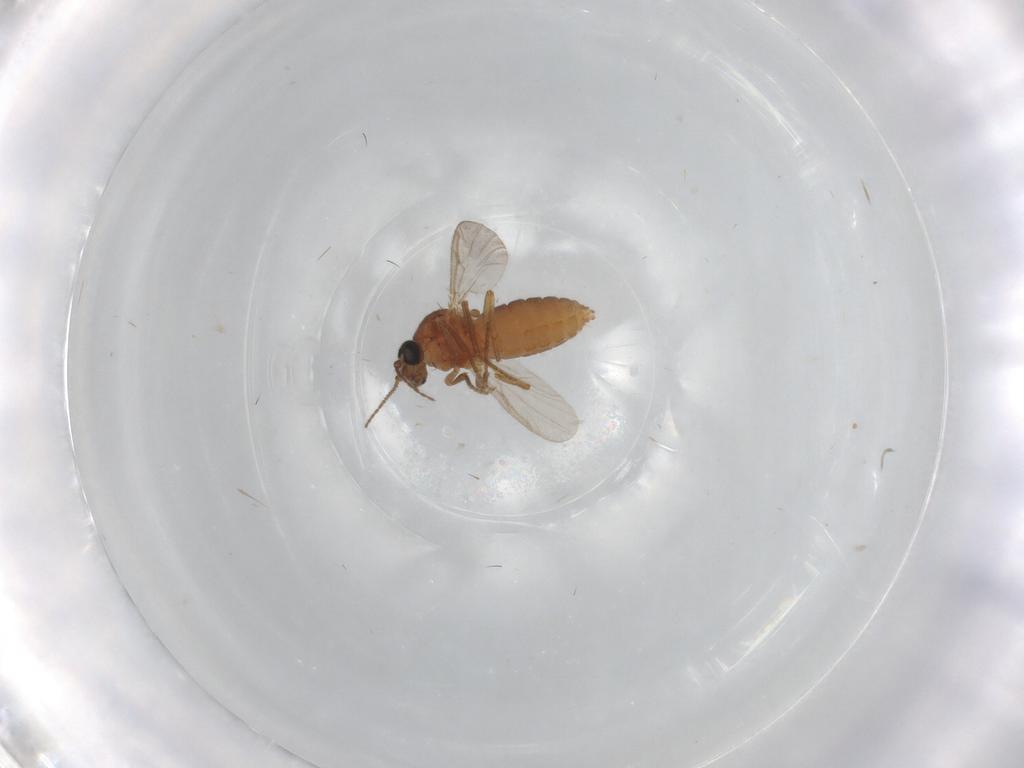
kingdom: Animalia
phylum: Arthropoda
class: Insecta
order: Diptera
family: Ceratopogonidae
